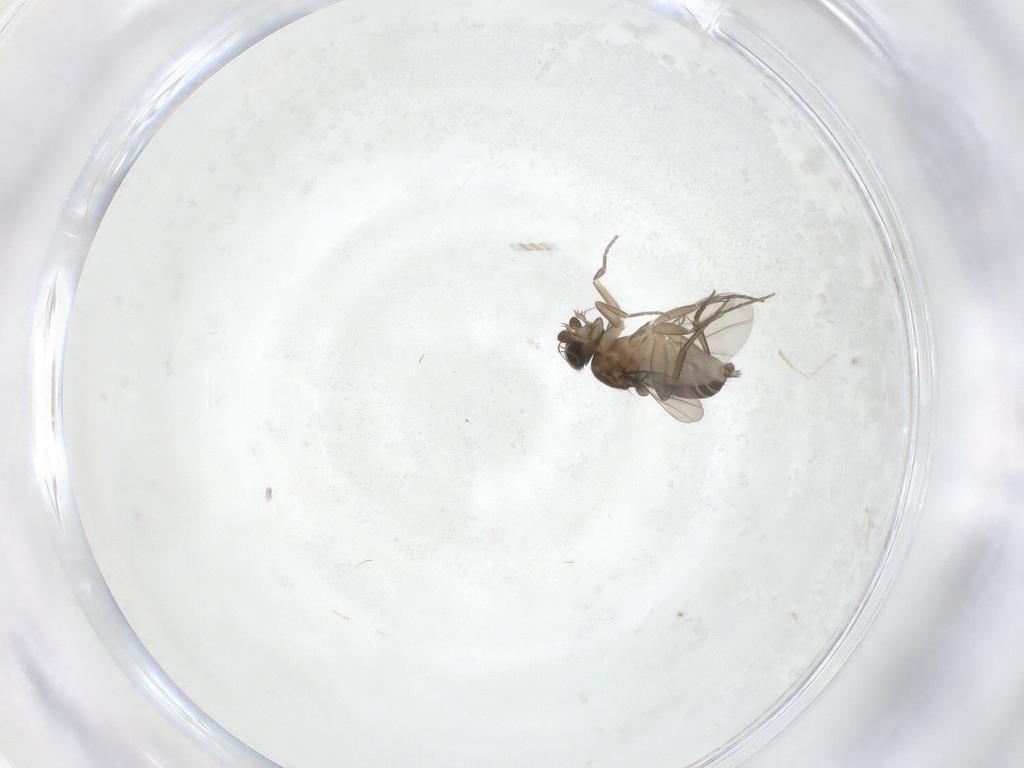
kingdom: Animalia
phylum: Arthropoda
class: Insecta
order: Diptera
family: Phoridae
